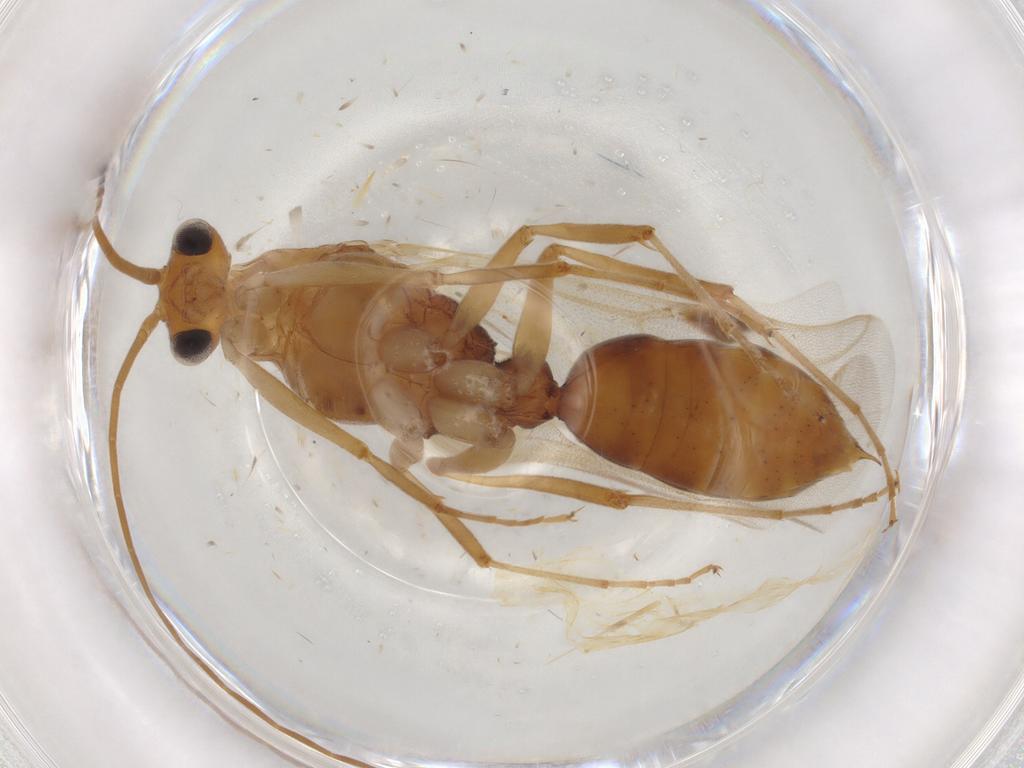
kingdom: Animalia
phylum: Arthropoda
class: Insecta
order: Hymenoptera
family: Formicidae
